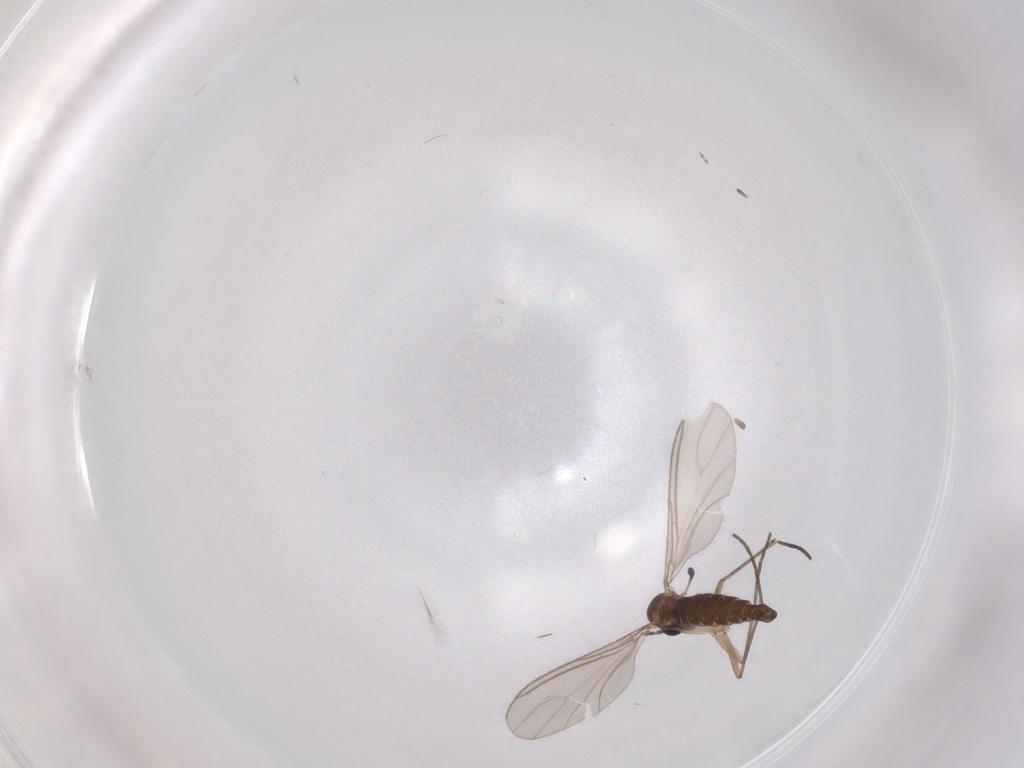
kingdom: Animalia
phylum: Arthropoda
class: Insecta
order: Diptera
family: Sciaridae
